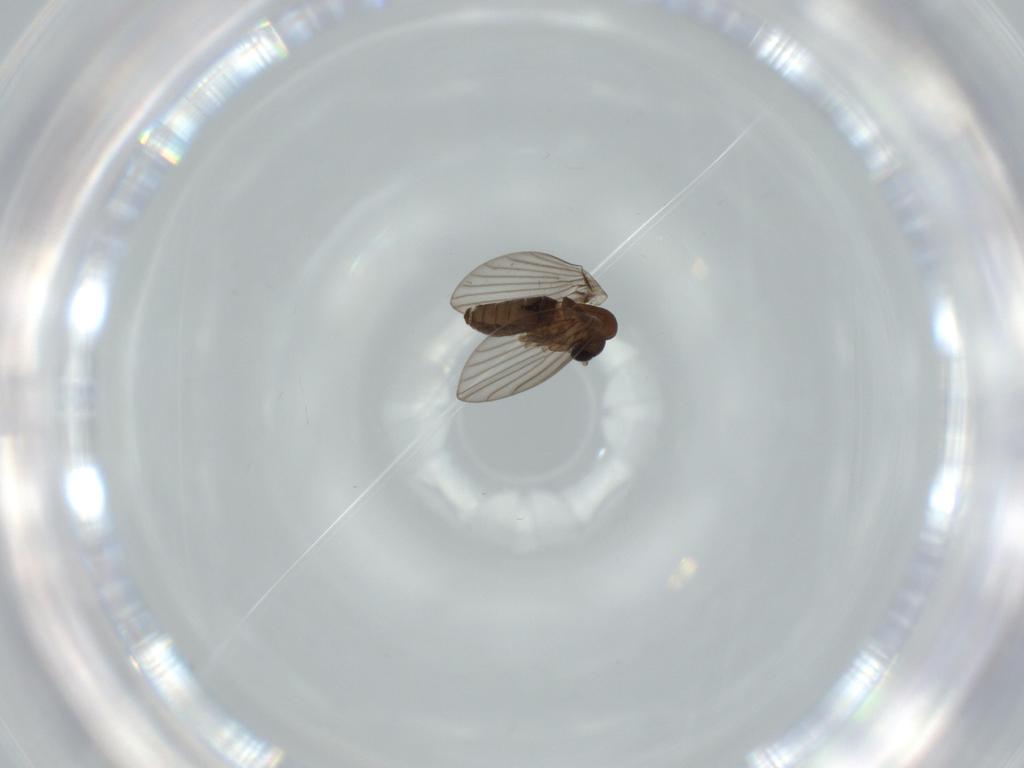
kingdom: Animalia
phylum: Arthropoda
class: Insecta
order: Diptera
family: Psychodidae
